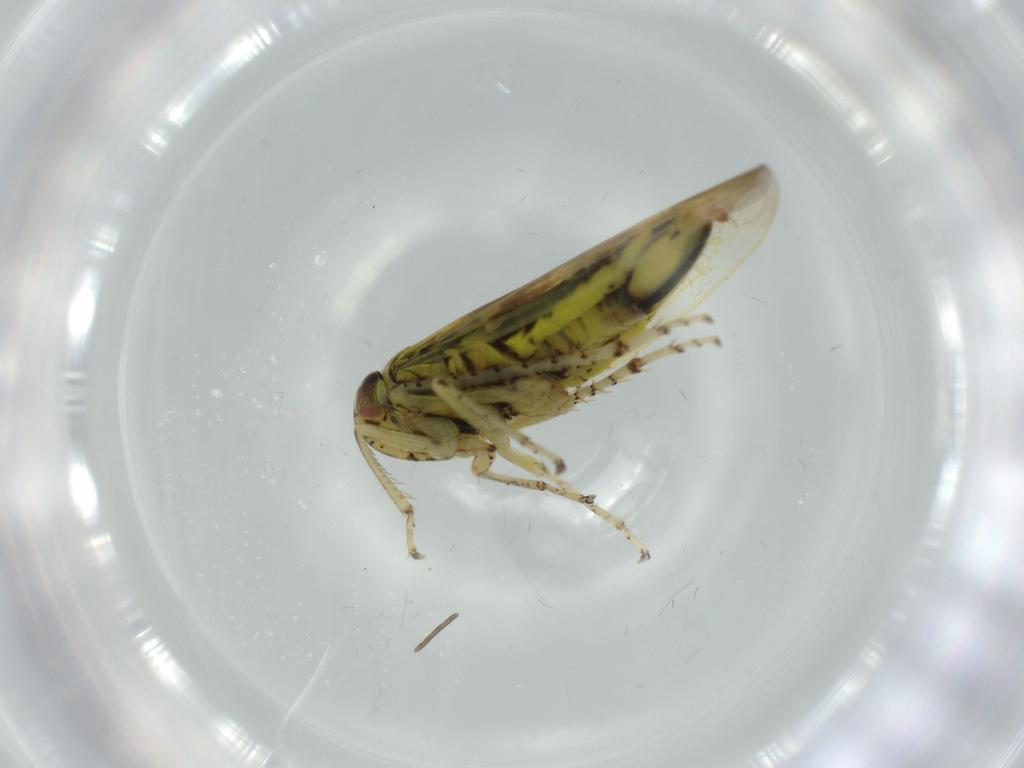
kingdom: Animalia
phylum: Arthropoda
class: Insecta
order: Hemiptera
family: Cicadellidae
